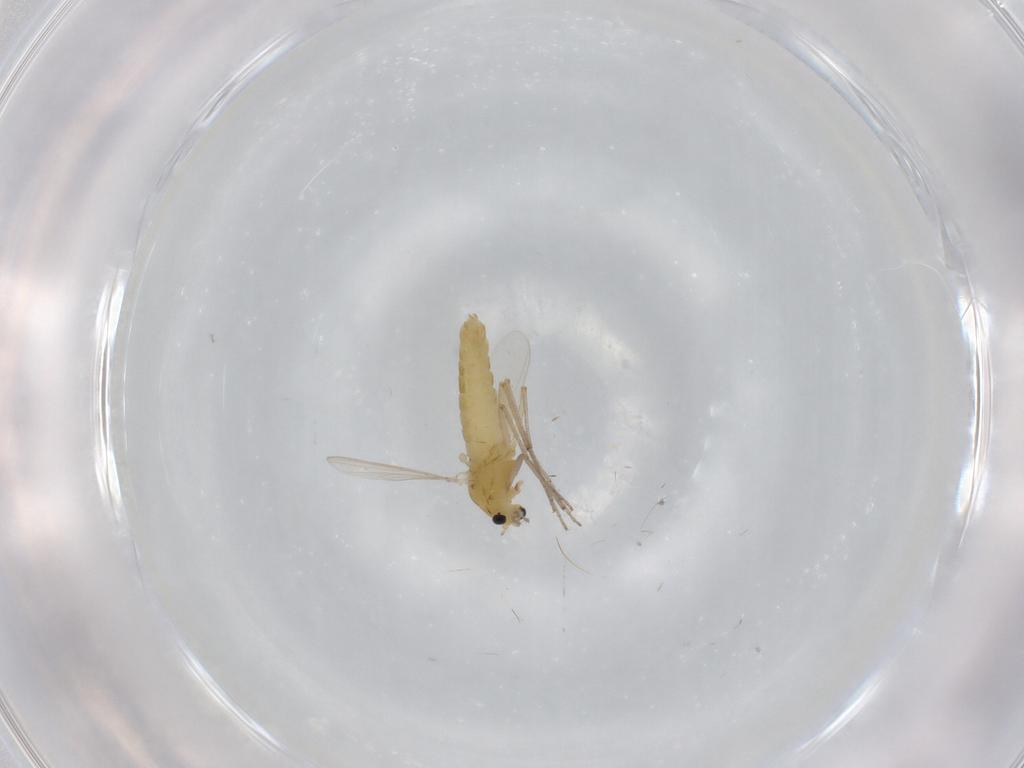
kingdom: Animalia
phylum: Arthropoda
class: Insecta
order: Diptera
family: Chironomidae
